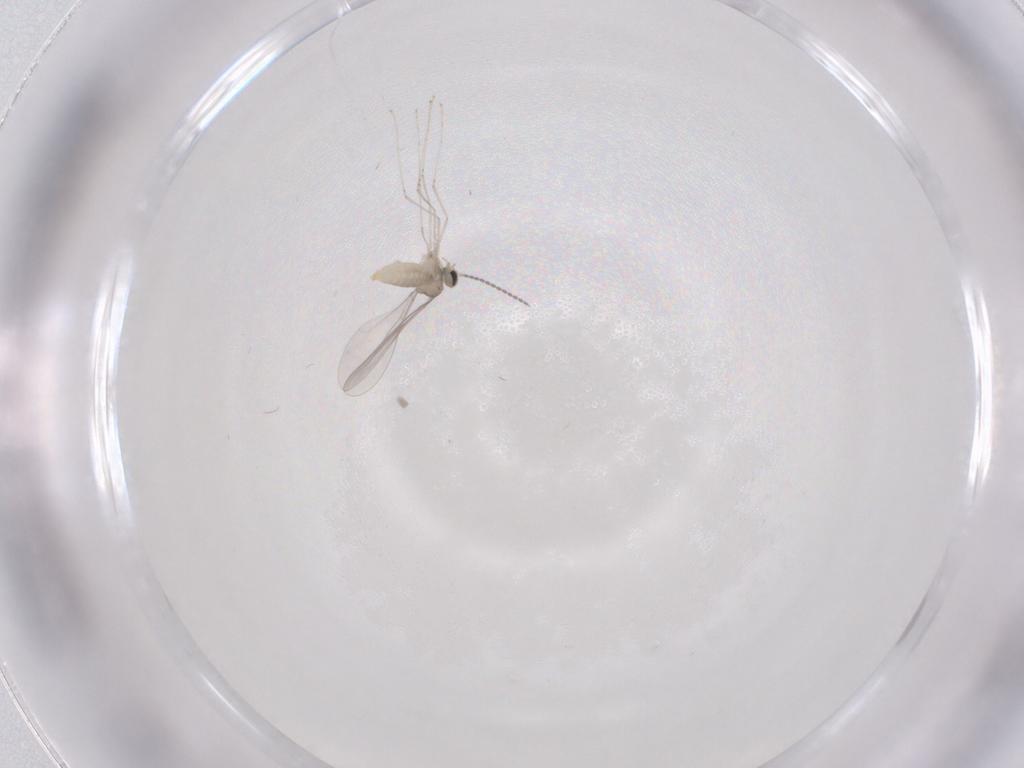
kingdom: Animalia
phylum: Arthropoda
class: Insecta
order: Diptera
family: Cecidomyiidae
